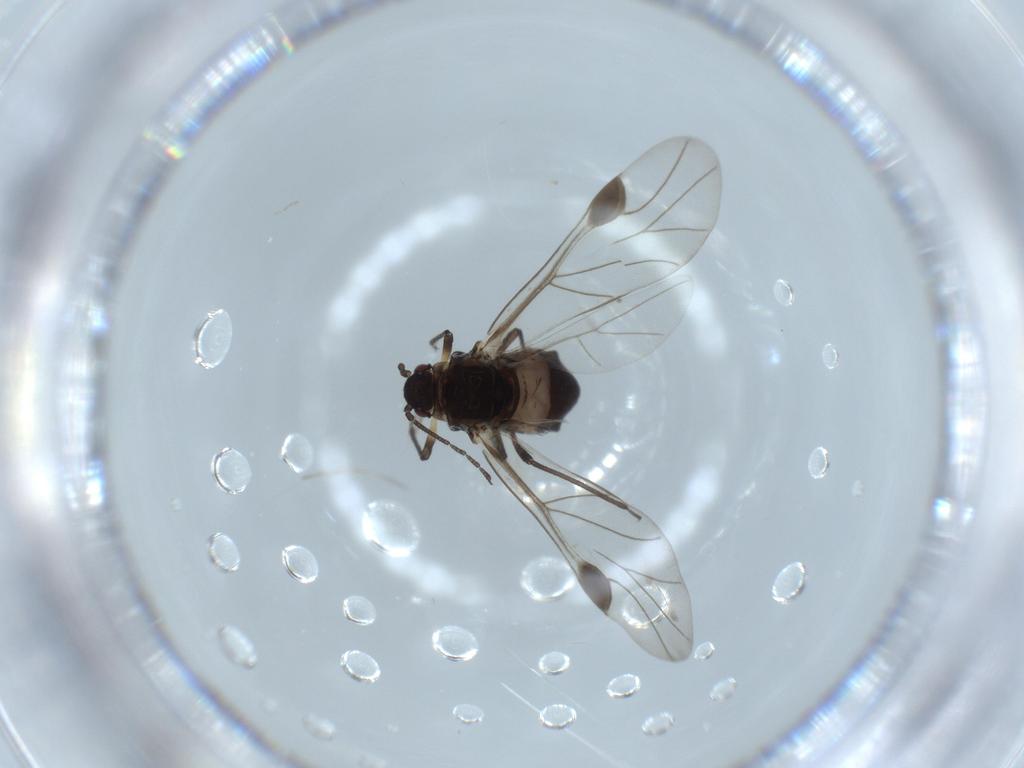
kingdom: Animalia
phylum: Arthropoda
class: Insecta
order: Hemiptera
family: Aphididae
